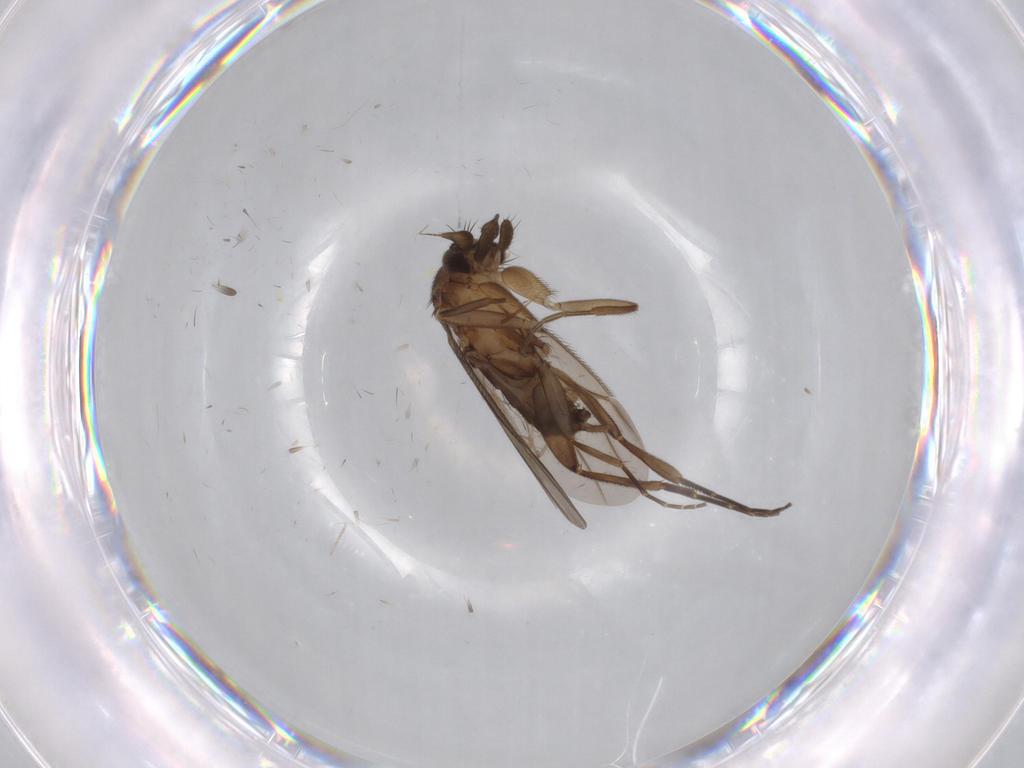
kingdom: Animalia
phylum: Arthropoda
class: Insecta
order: Diptera
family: Phoridae
